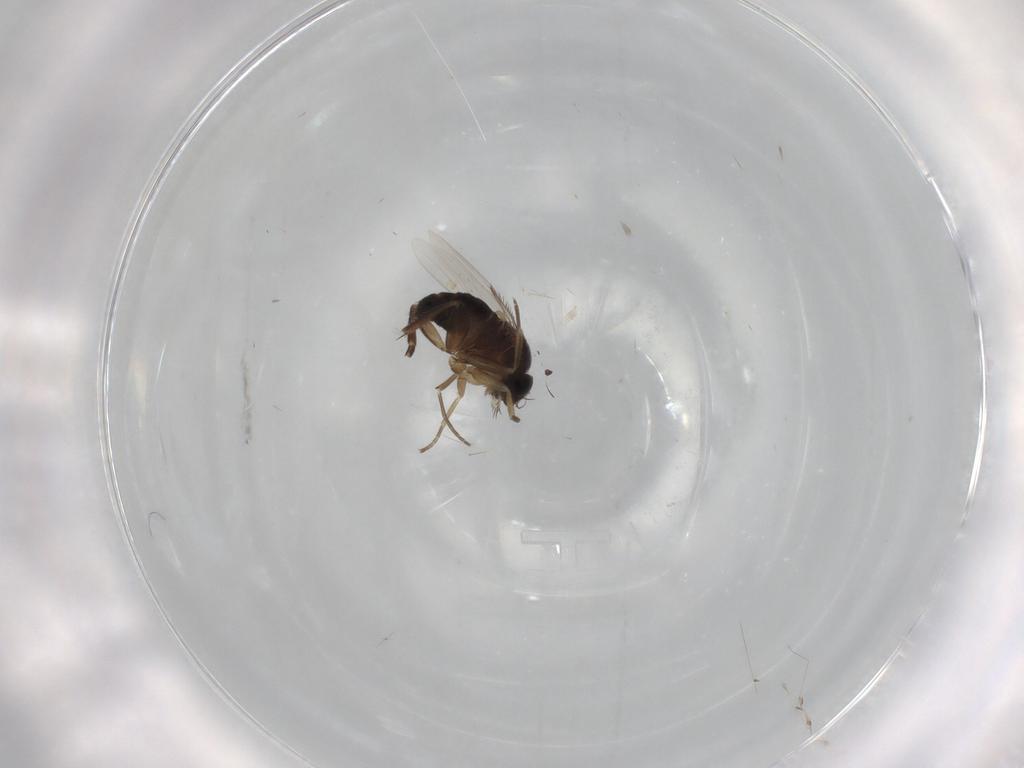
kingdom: Animalia
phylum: Arthropoda
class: Insecta
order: Diptera
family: Phoridae
